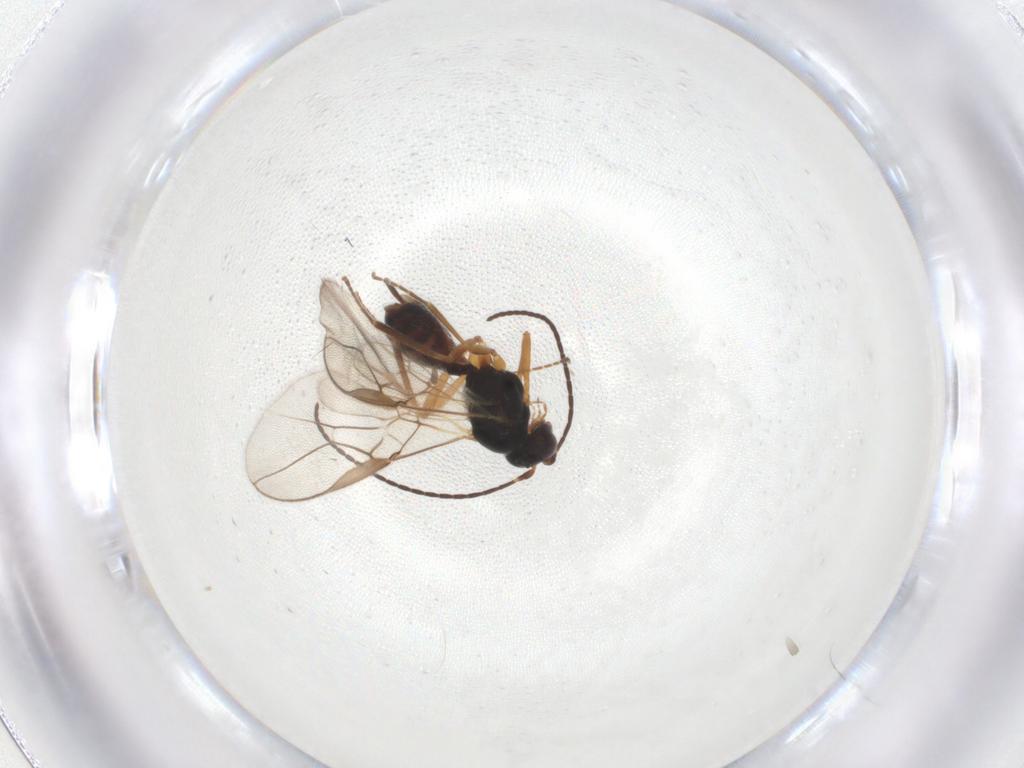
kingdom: Animalia
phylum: Arthropoda
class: Insecta
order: Hymenoptera
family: Braconidae
